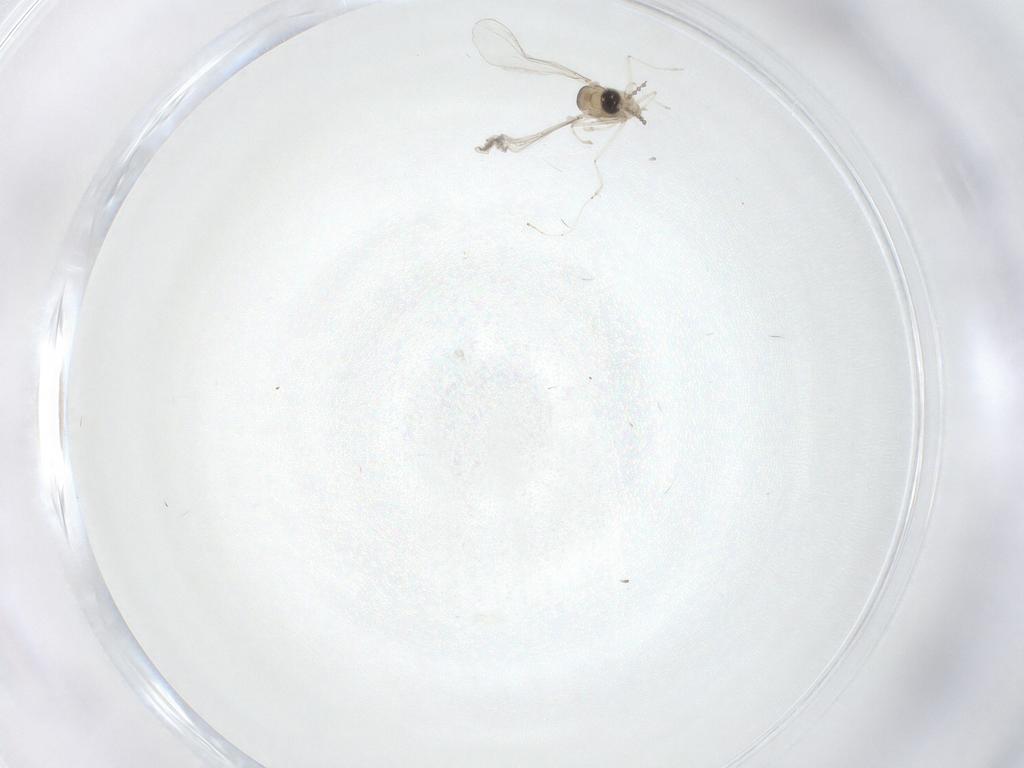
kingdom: Animalia
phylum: Arthropoda
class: Insecta
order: Diptera
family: Cecidomyiidae
